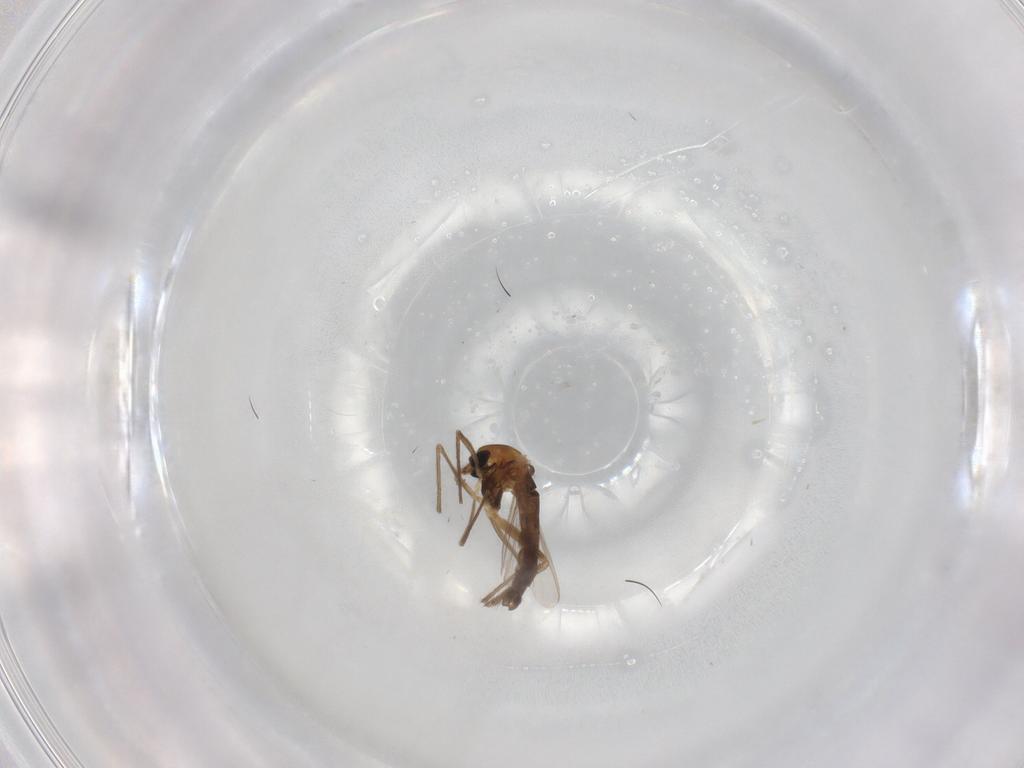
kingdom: Animalia
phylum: Arthropoda
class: Insecta
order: Diptera
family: Chironomidae
